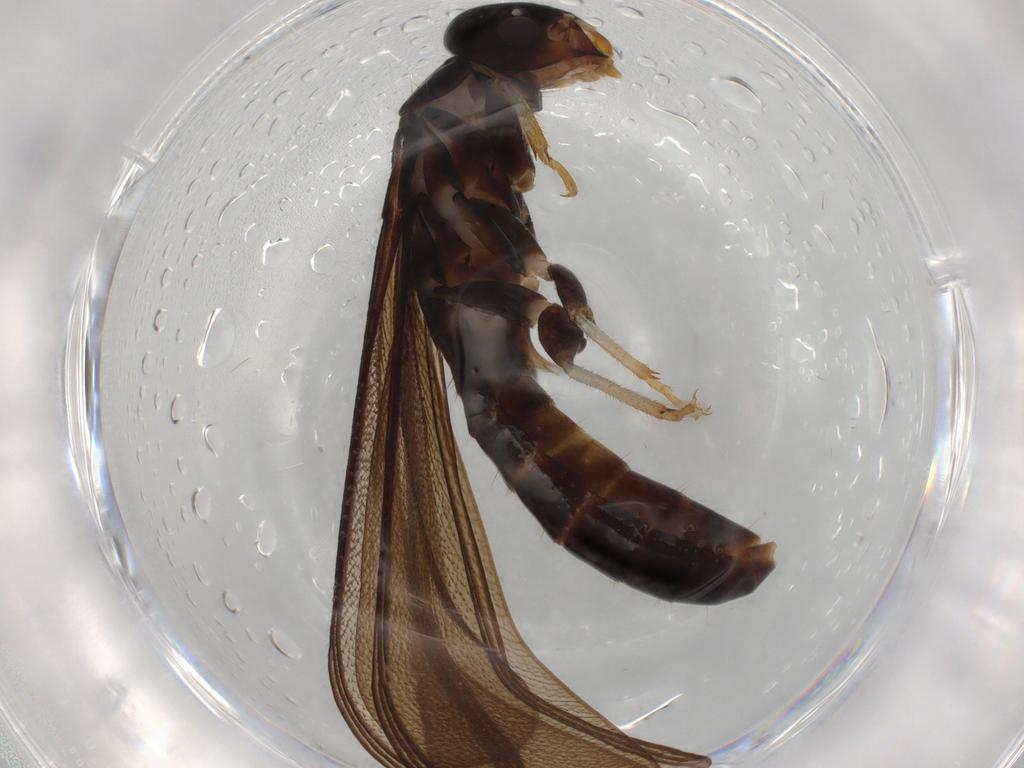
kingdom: Animalia
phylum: Arthropoda
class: Insecta
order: Blattodea
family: Kalotermitidae
